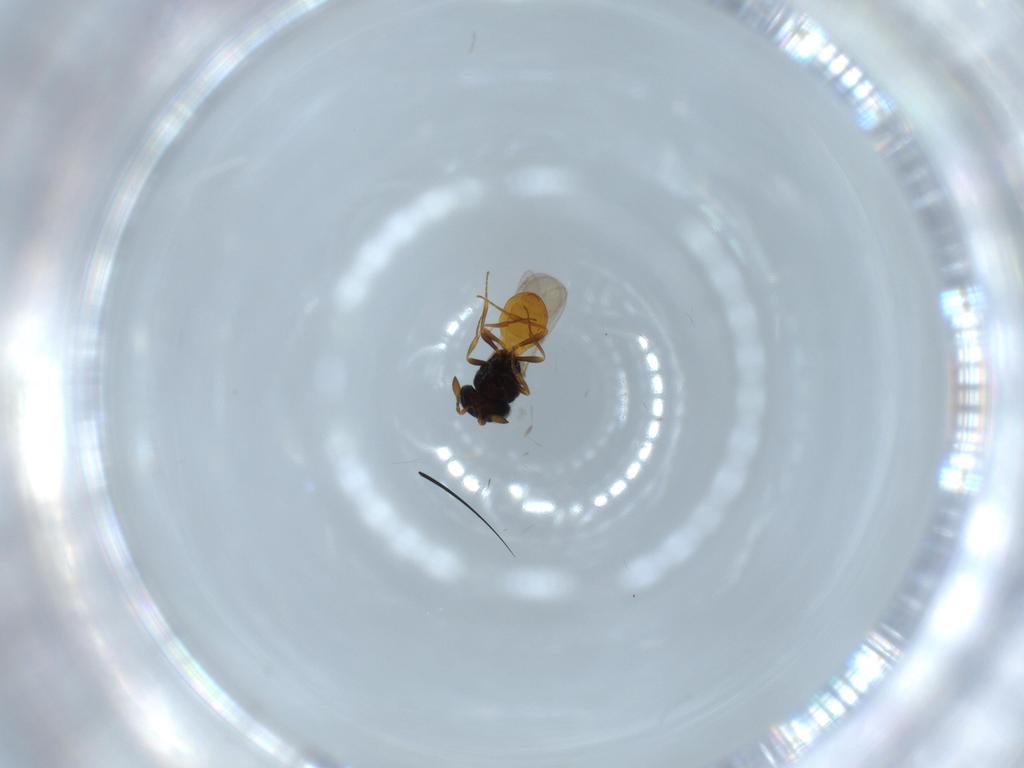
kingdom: Animalia
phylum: Arthropoda
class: Insecta
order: Hymenoptera
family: Scelionidae
